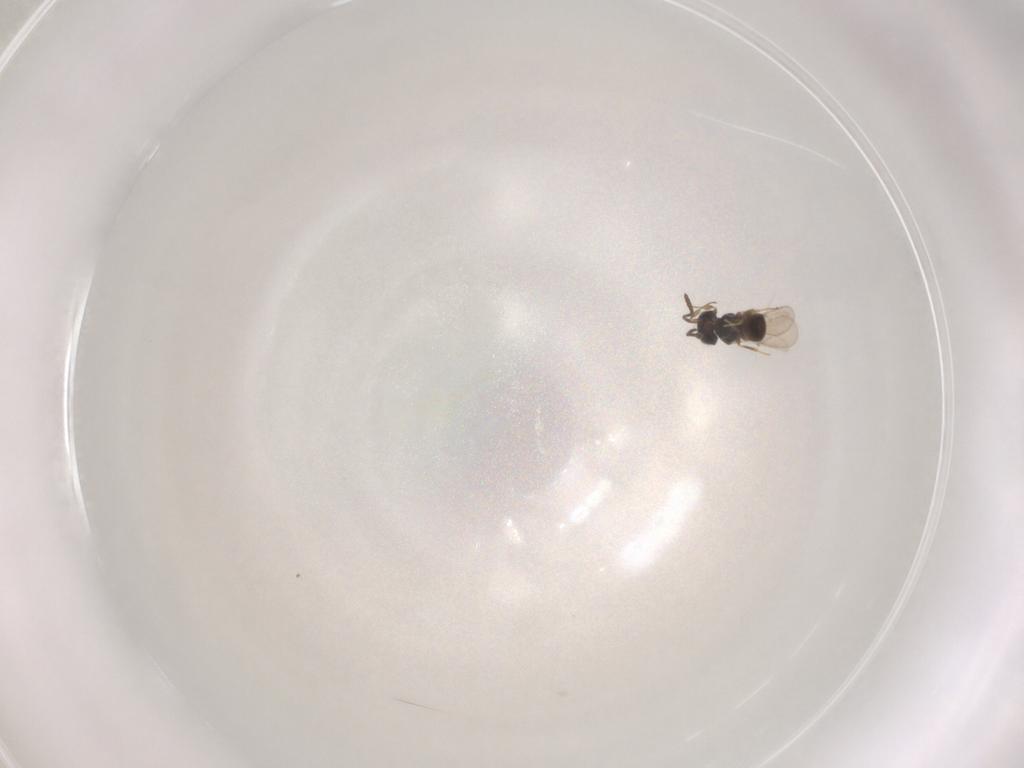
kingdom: Animalia
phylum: Arthropoda
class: Insecta
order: Hymenoptera
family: Scelionidae
